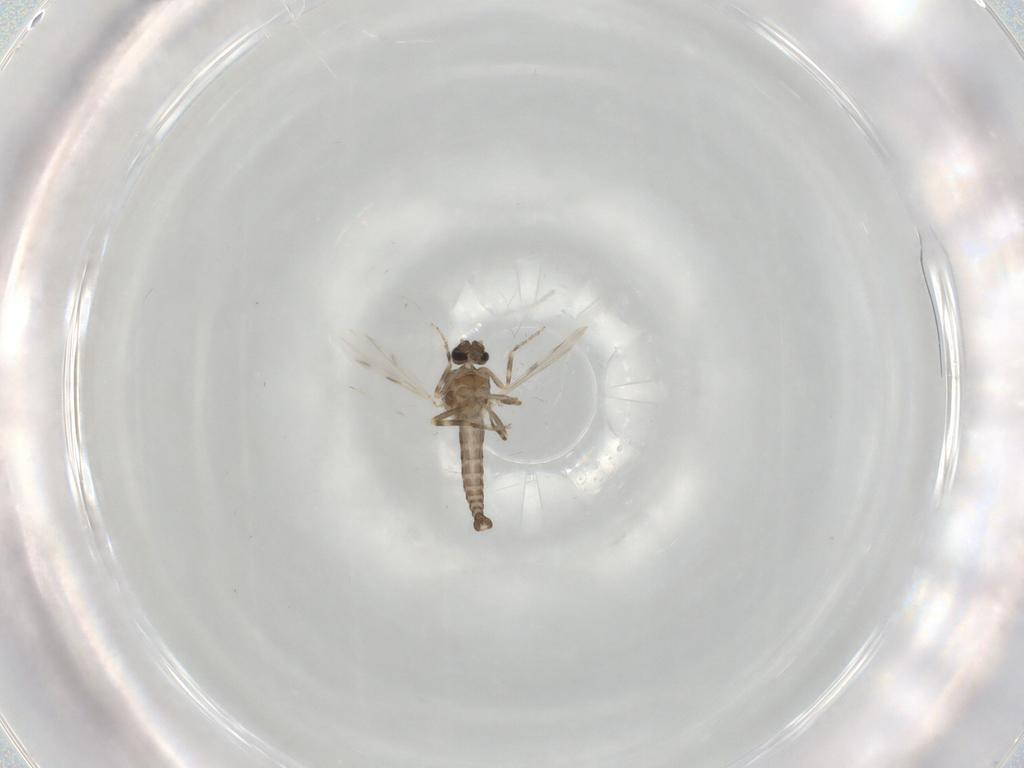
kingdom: Animalia
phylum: Arthropoda
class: Insecta
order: Diptera
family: Ceratopogonidae
